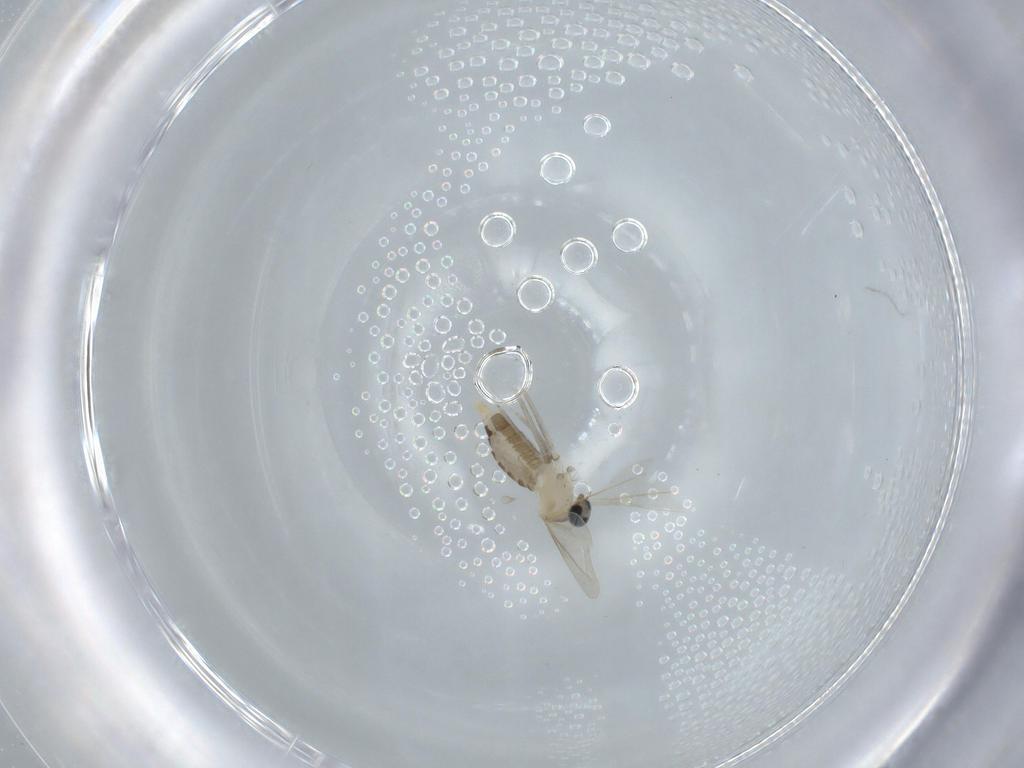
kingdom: Animalia
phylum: Arthropoda
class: Insecta
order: Diptera
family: Cecidomyiidae
